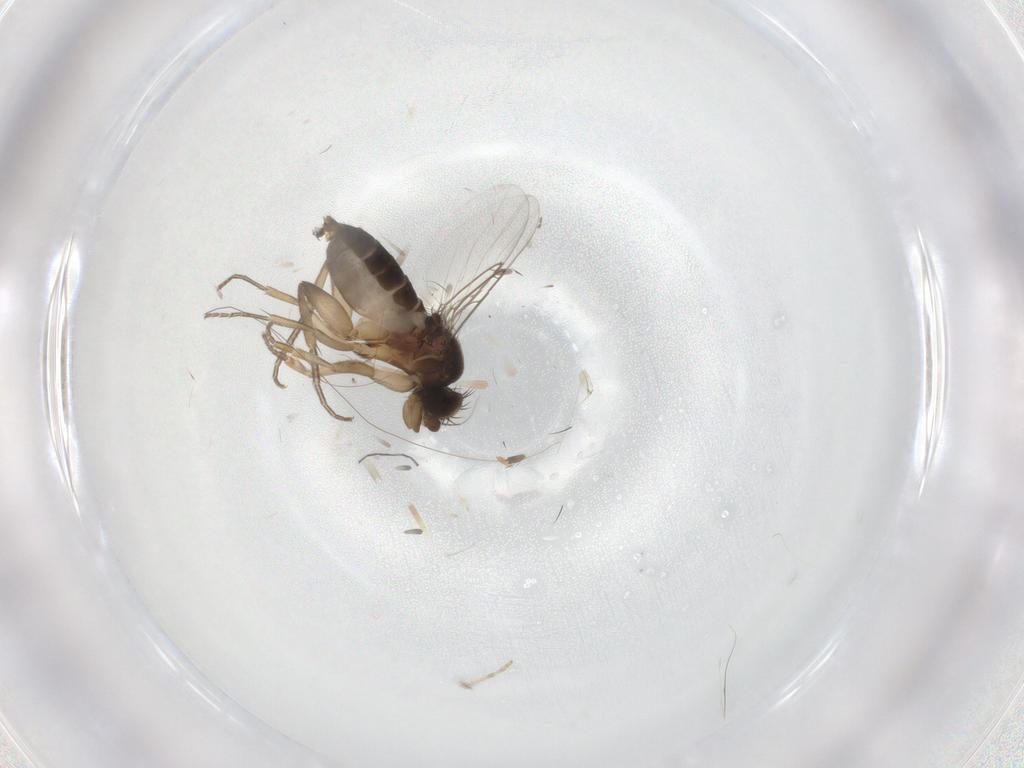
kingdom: Animalia
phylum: Arthropoda
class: Insecta
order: Diptera
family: Phoridae
